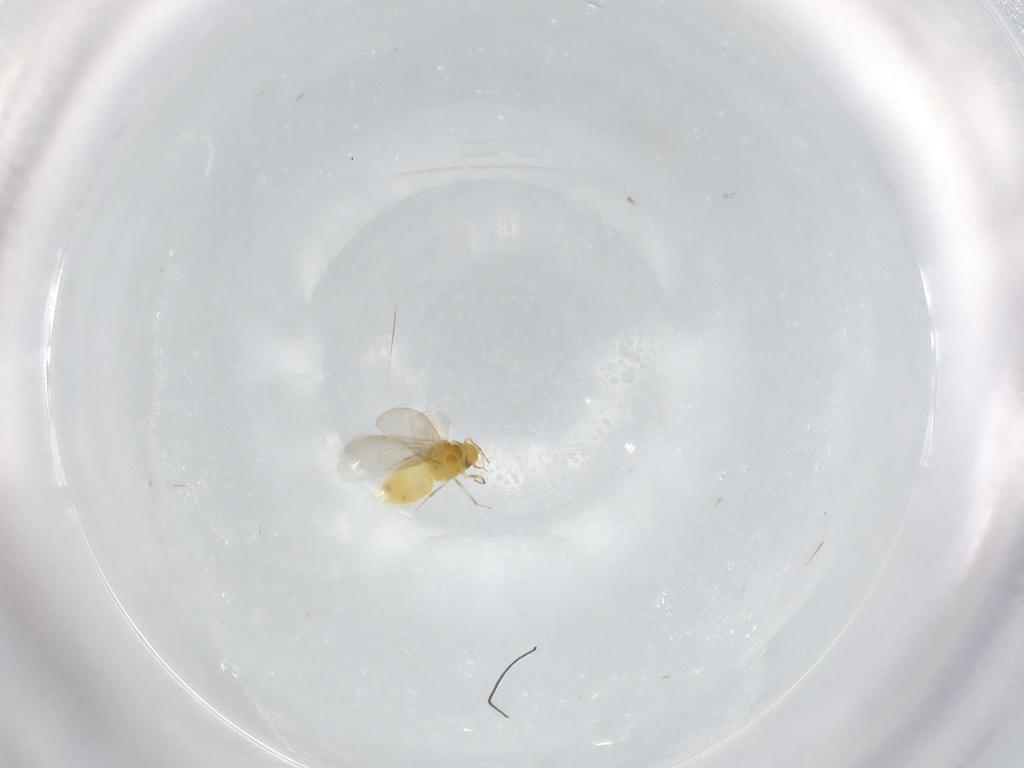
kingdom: Animalia
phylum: Arthropoda
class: Insecta
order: Hemiptera
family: Aleyrodidae
